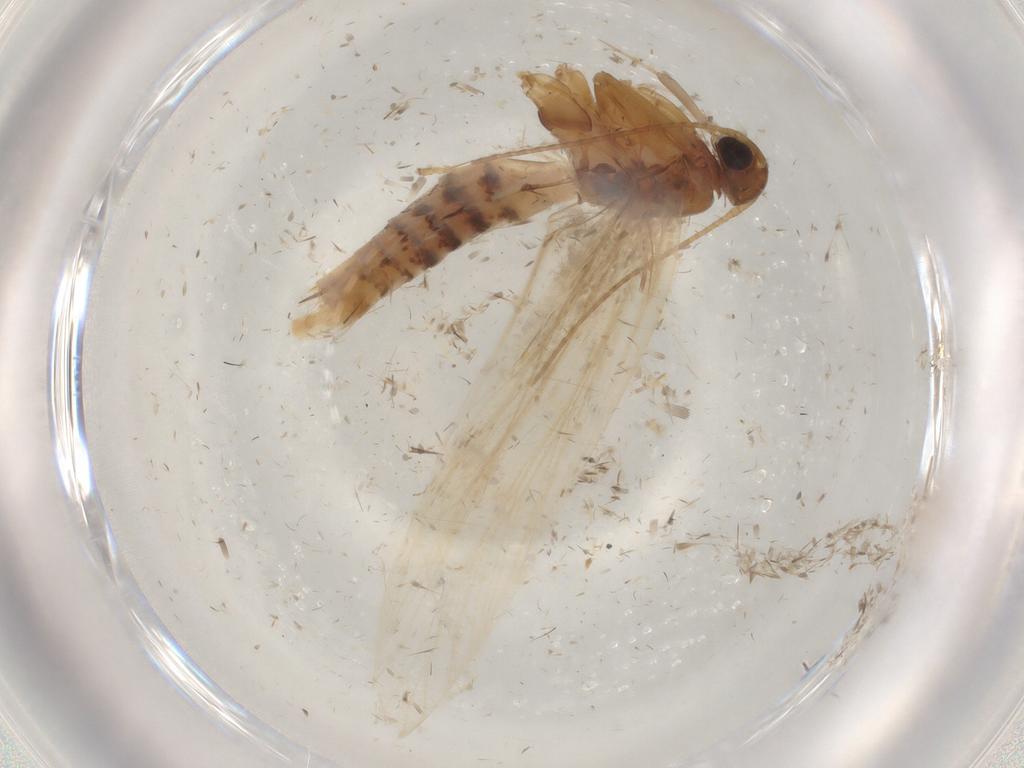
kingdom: Animalia
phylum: Arthropoda
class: Insecta
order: Lepidoptera
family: Gelechiidae
